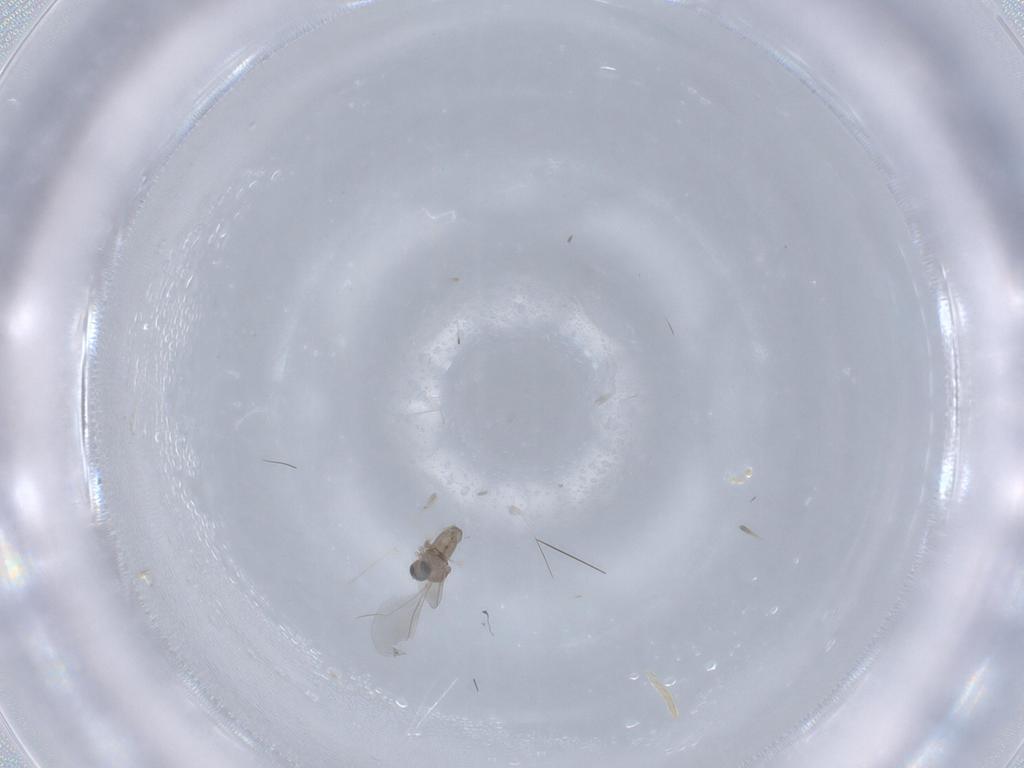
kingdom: Animalia
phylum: Arthropoda
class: Insecta
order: Diptera
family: Cecidomyiidae
